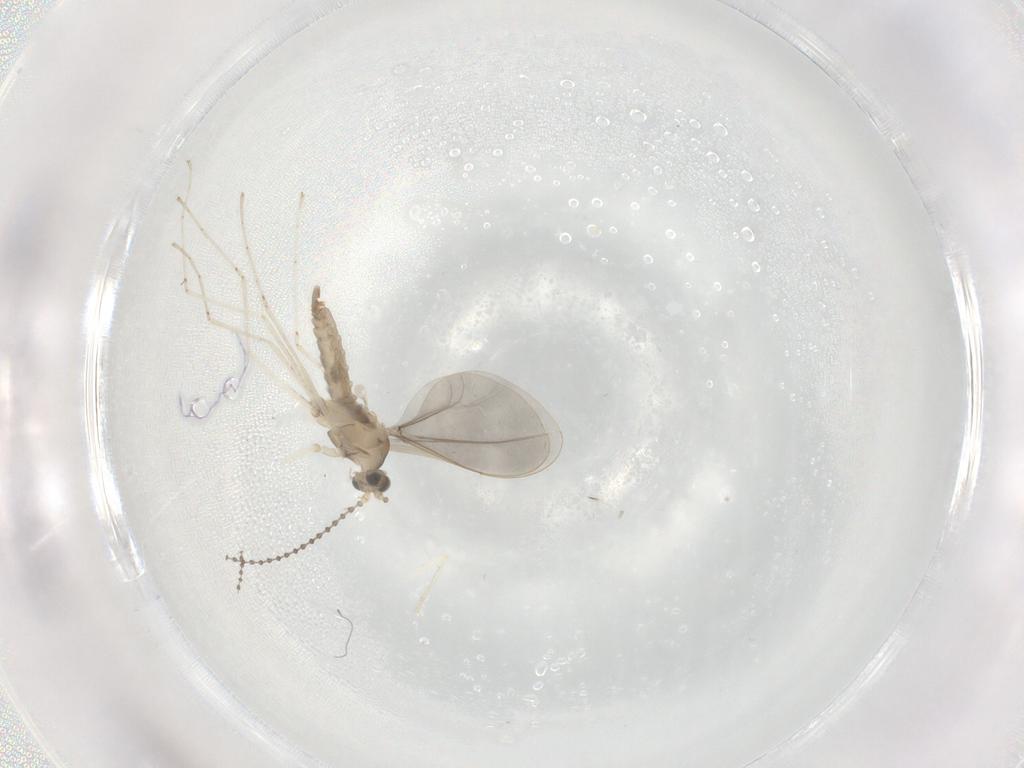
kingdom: Animalia
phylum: Arthropoda
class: Insecta
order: Diptera
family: Cecidomyiidae
